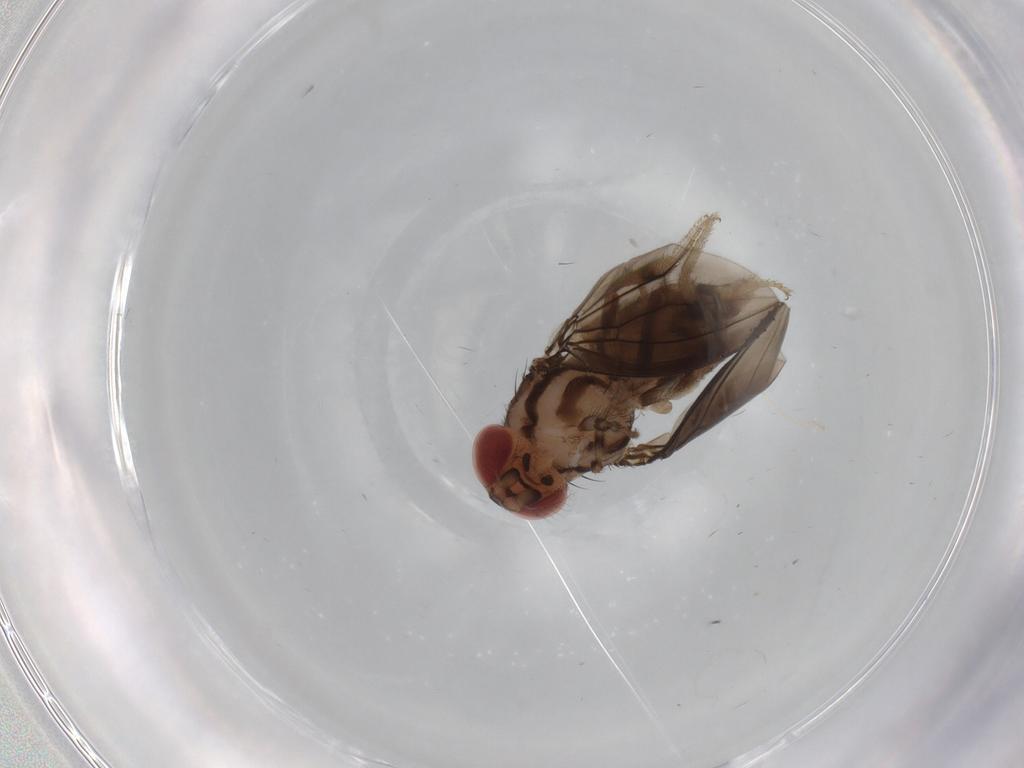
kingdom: Animalia
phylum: Arthropoda
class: Insecta
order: Diptera
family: Drosophilidae
